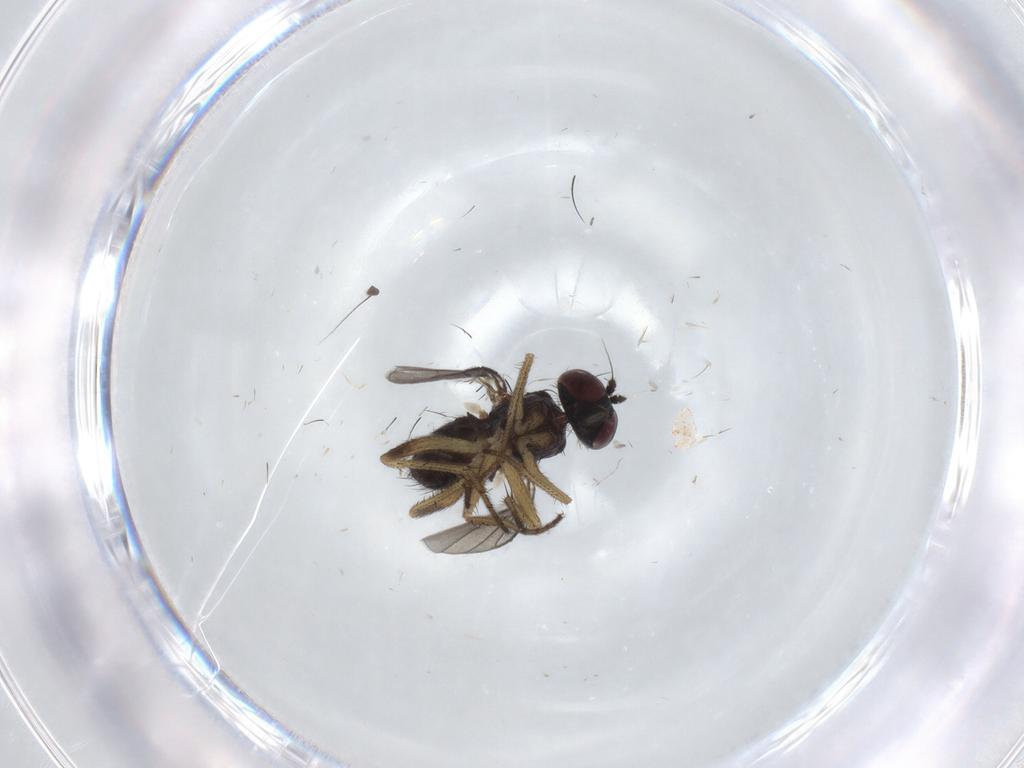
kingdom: Animalia
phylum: Arthropoda
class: Insecta
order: Diptera
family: Dolichopodidae
